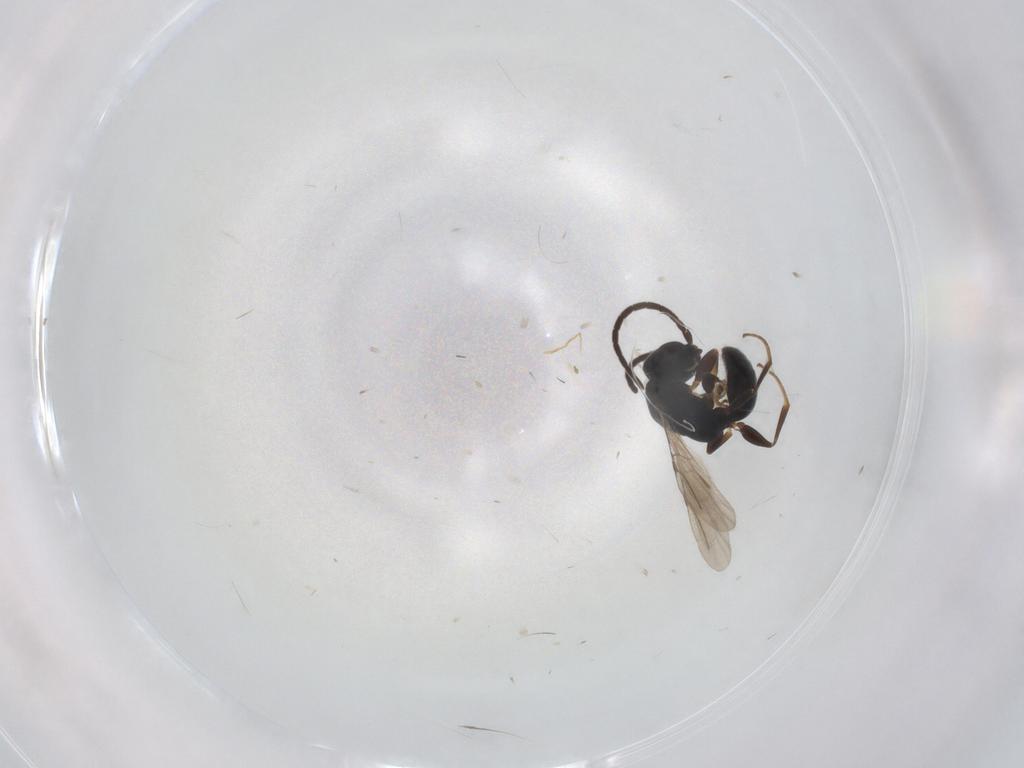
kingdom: Animalia
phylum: Arthropoda
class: Insecta
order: Hymenoptera
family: Bethylidae
